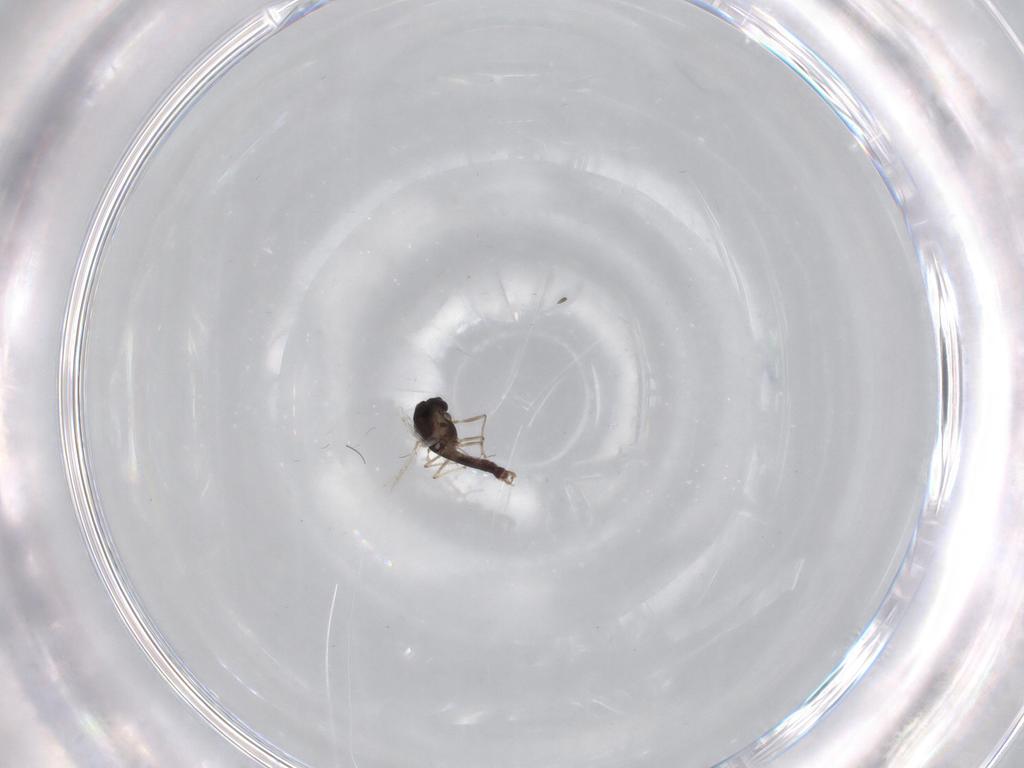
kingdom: Animalia
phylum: Arthropoda
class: Insecta
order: Diptera
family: Chironomidae
